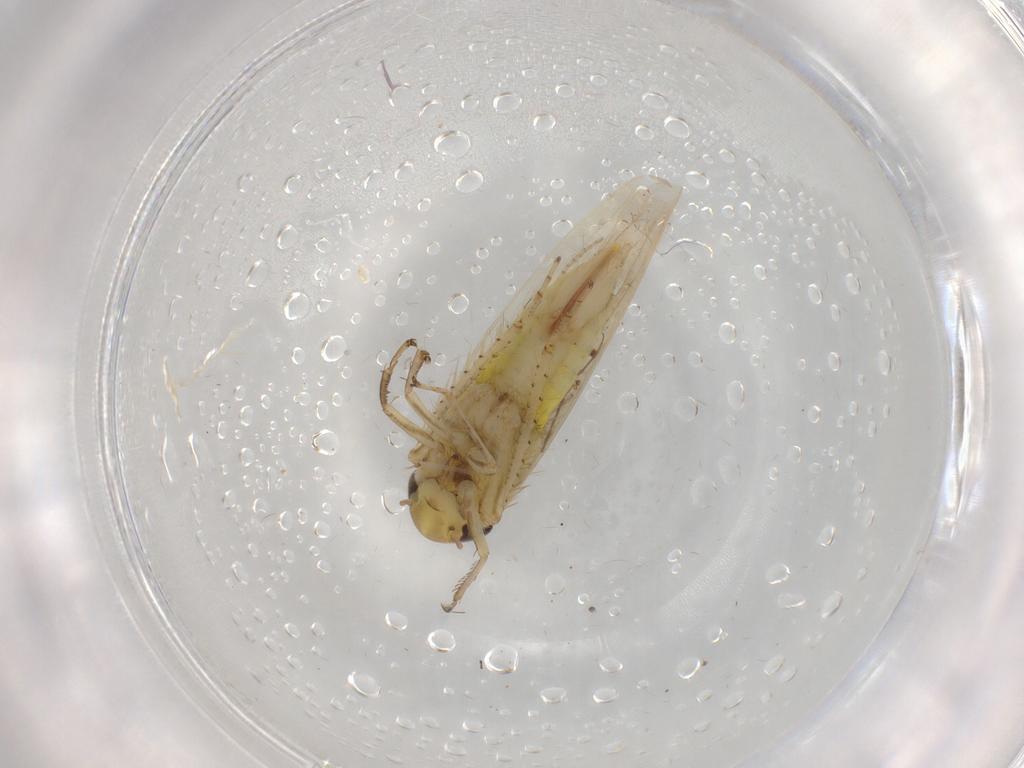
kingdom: Animalia
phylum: Arthropoda
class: Insecta
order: Hemiptera
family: Cicadellidae
